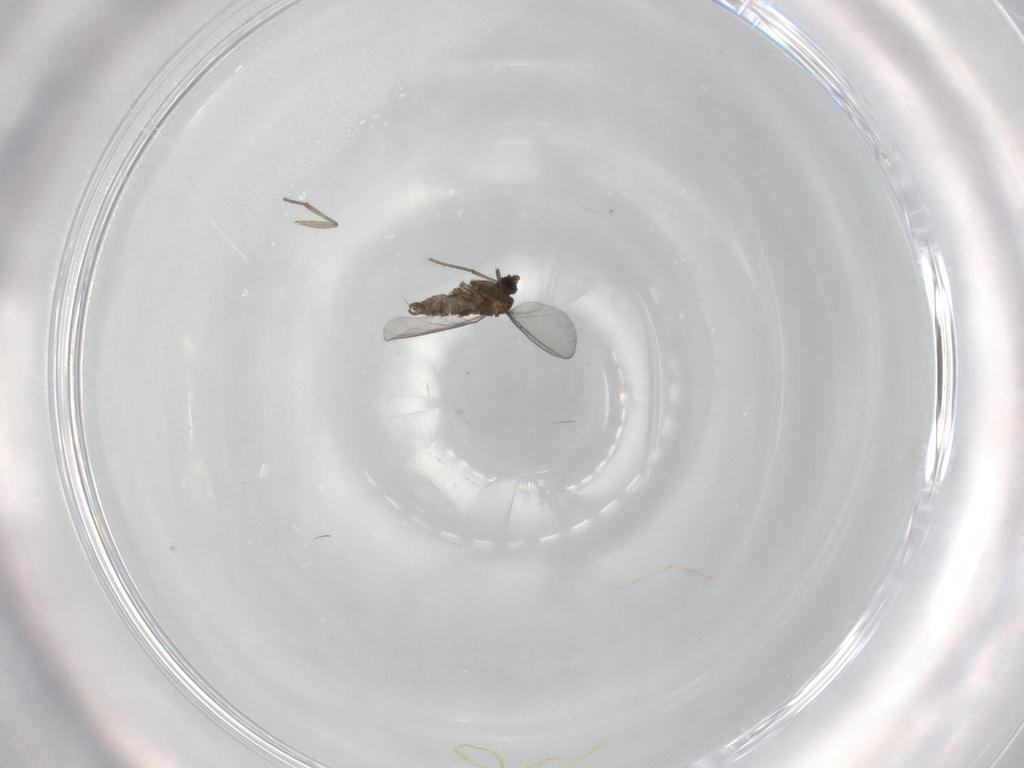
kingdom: Animalia
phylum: Arthropoda
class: Insecta
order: Diptera
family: Sciaridae
